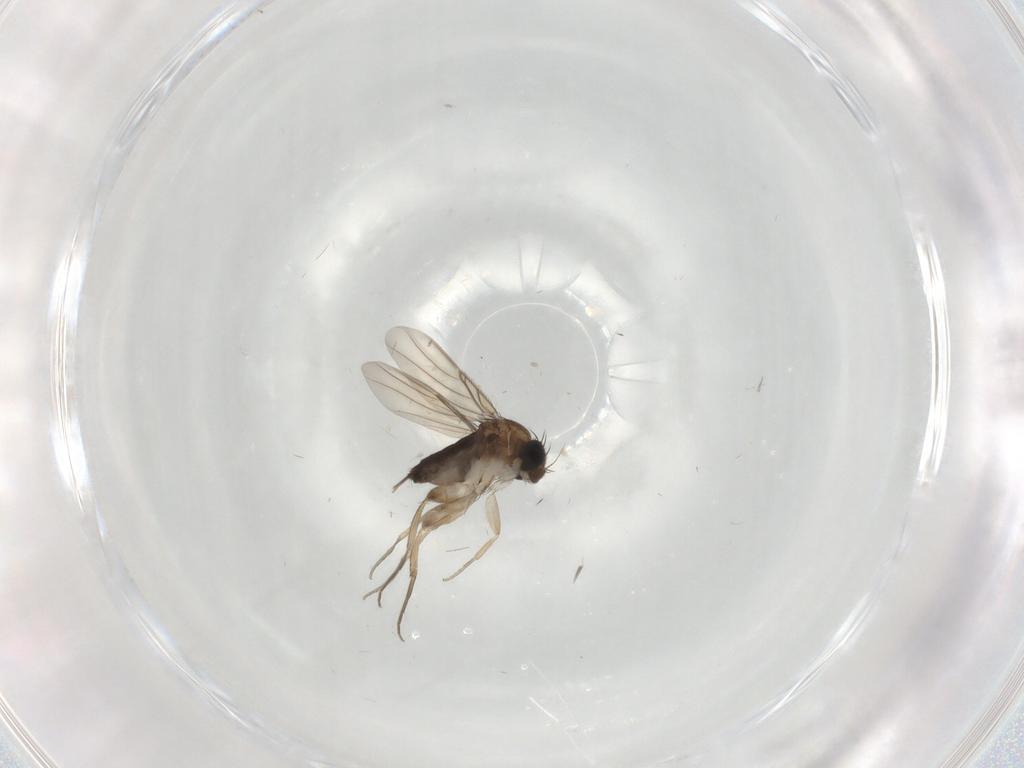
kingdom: Animalia
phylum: Arthropoda
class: Insecta
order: Diptera
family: Phoridae
